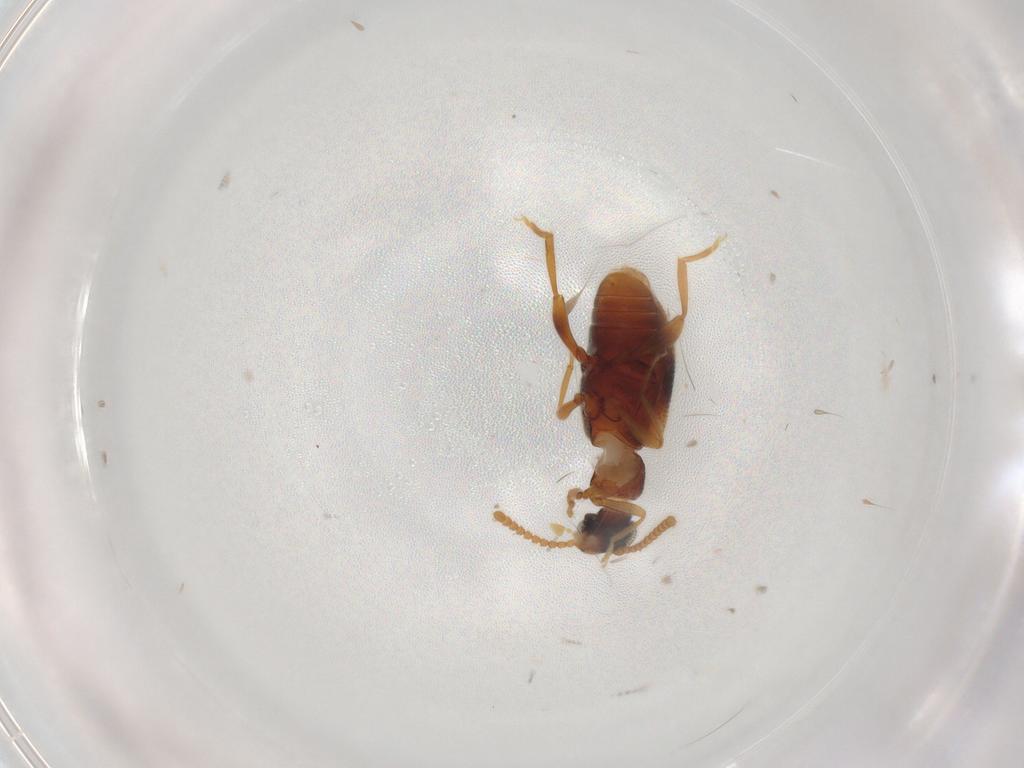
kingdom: Animalia
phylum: Arthropoda
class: Insecta
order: Coleoptera
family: Aderidae
